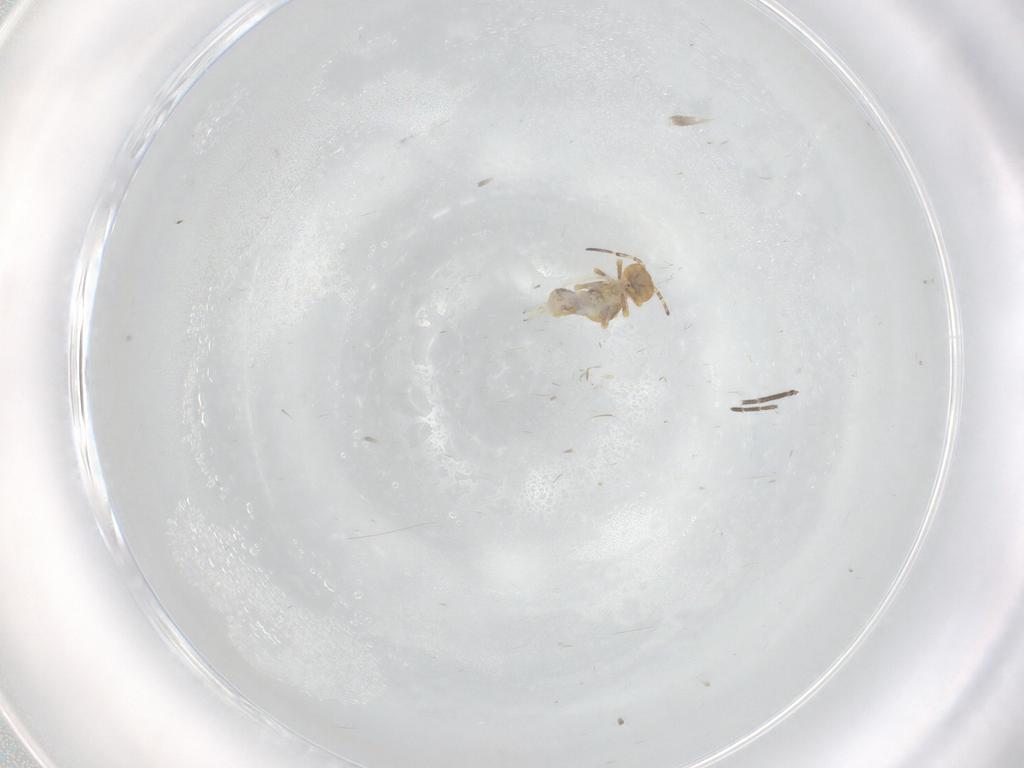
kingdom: Animalia
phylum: Arthropoda
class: Collembola
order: Symphypleona
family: Sminthuridae
